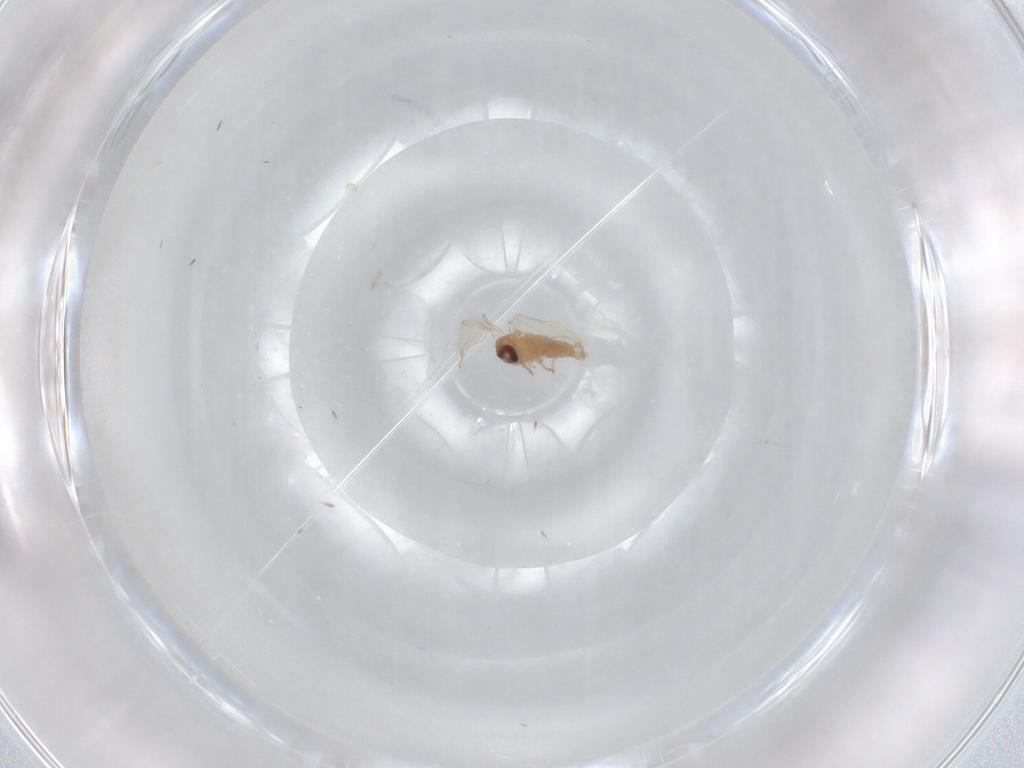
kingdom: Animalia
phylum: Arthropoda
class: Insecta
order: Diptera
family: Psychodidae
